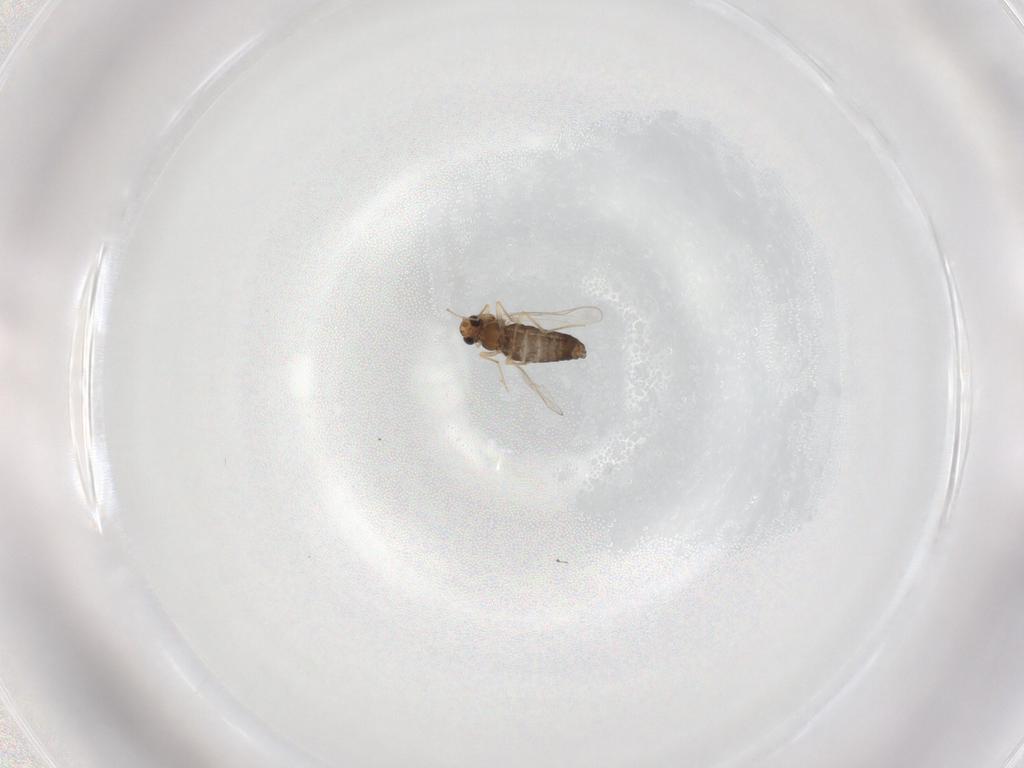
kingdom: Animalia
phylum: Arthropoda
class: Insecta
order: Diptera
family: Chironomidae
